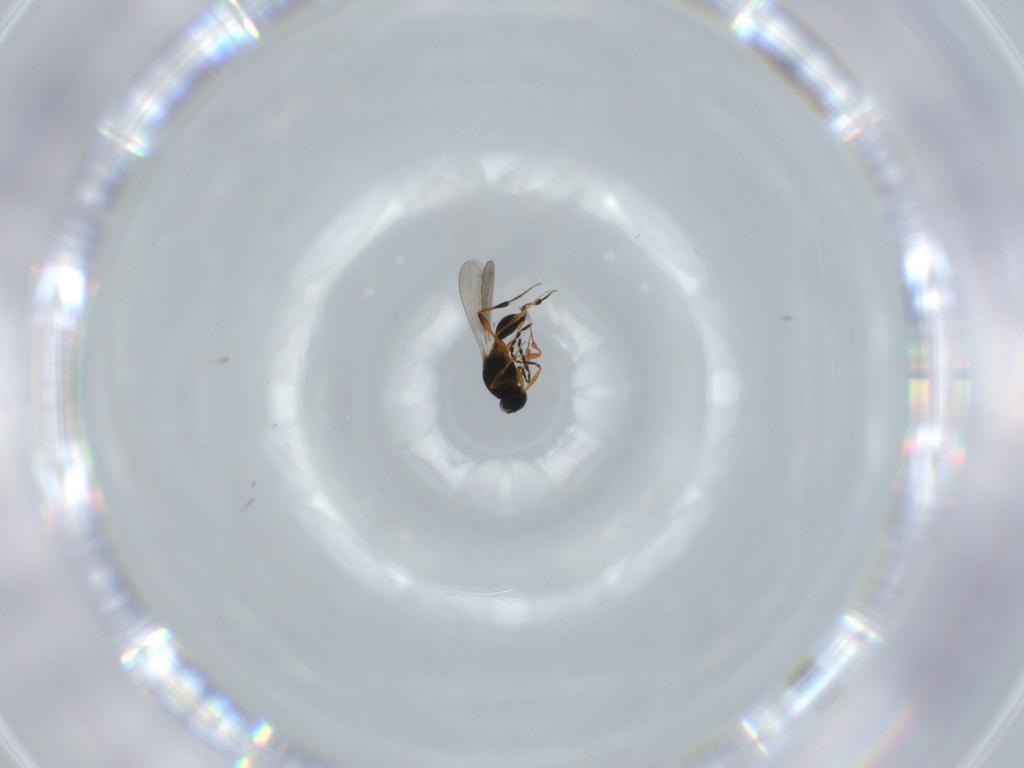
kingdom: Animalia
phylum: Arthropoda
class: Insecta
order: Hymenoptera
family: Platygastridae
